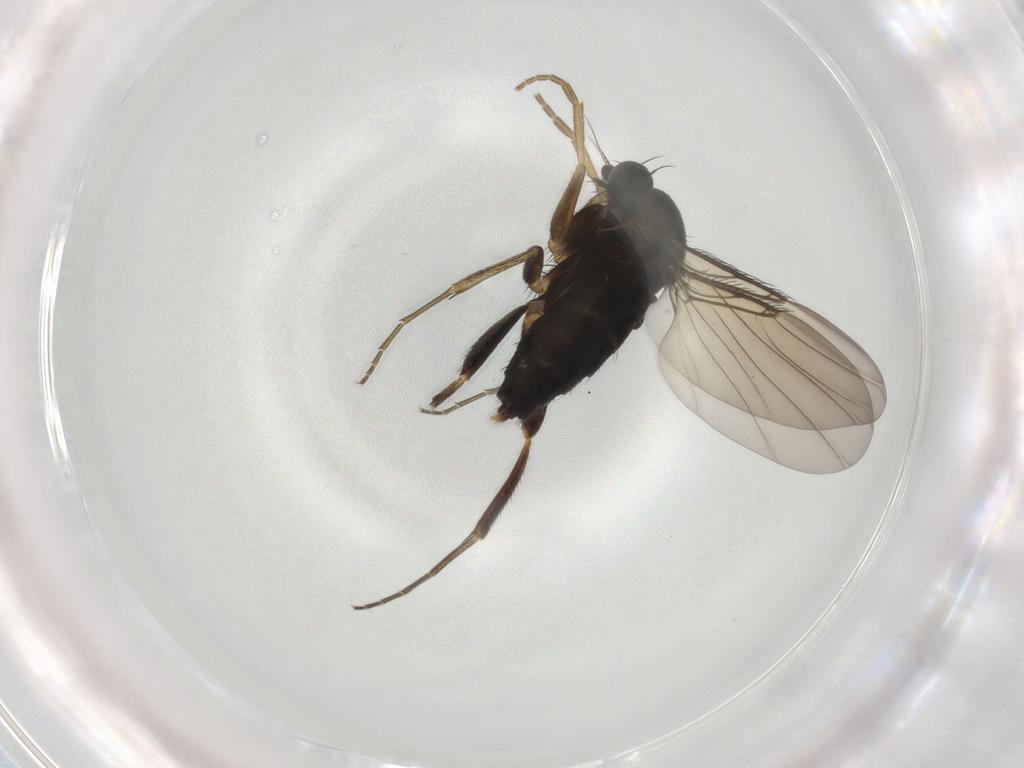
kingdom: Animalia
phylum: Arthropoda
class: Insecta
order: Diptera
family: Phoridae
